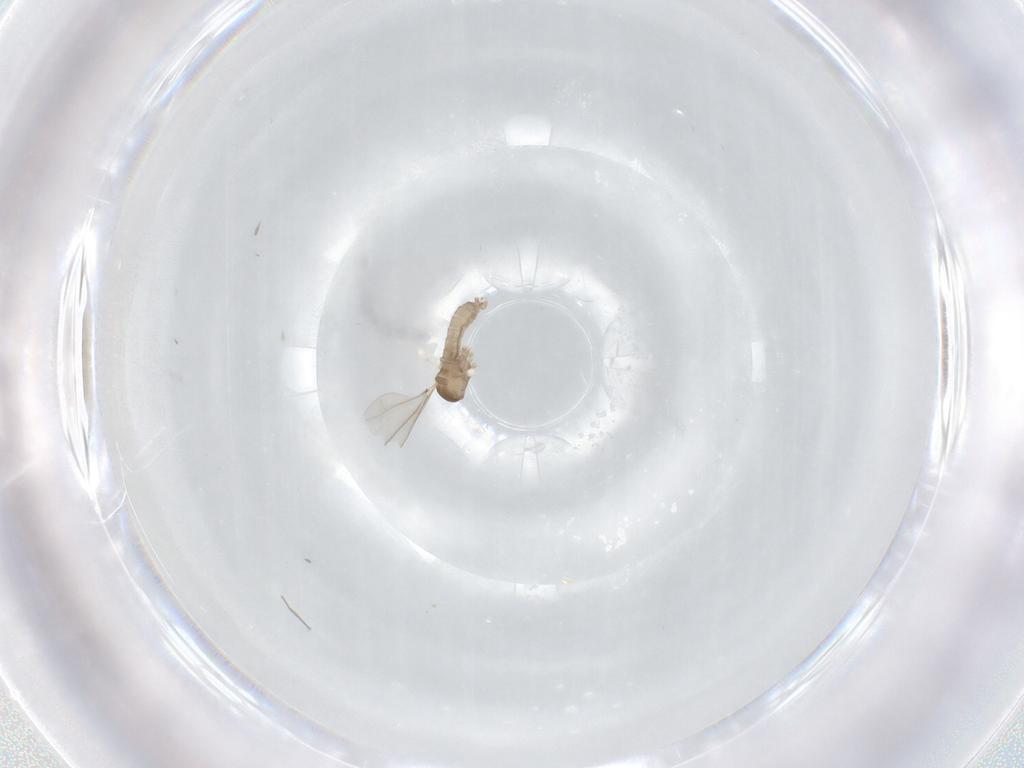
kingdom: Animalia
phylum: Arthropoda
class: Insecta
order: Diptera
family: Cecidomyiidae
